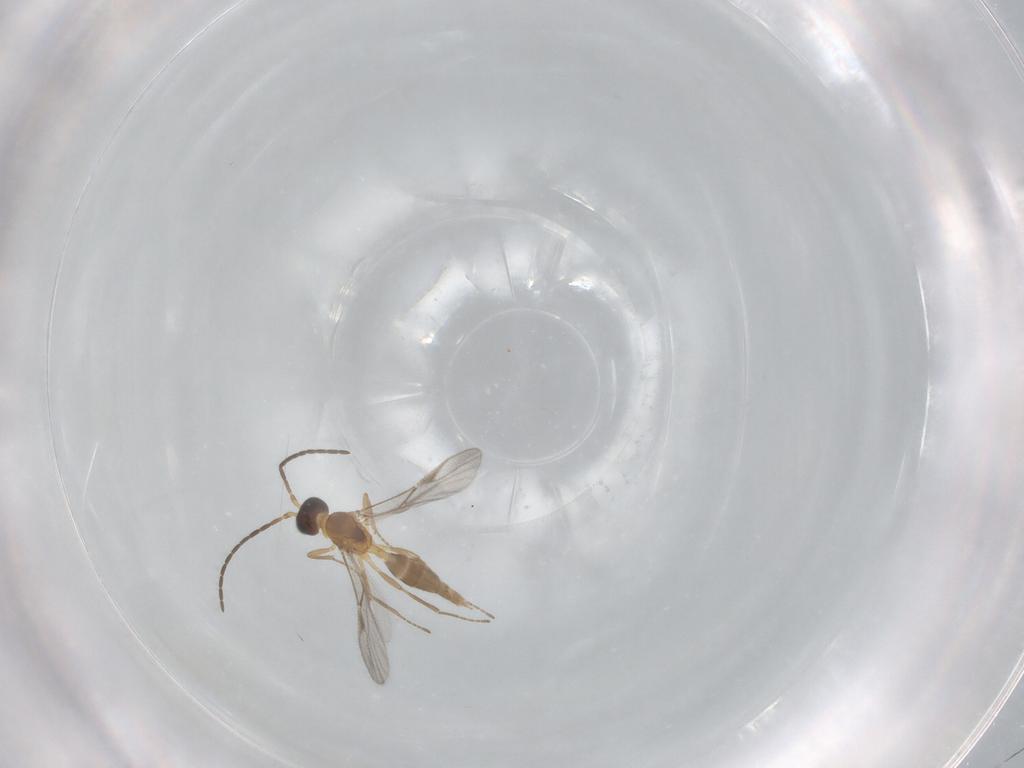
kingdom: Animalia
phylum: Arthropoda
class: Insecta
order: Hymenoptera
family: Braconidae
